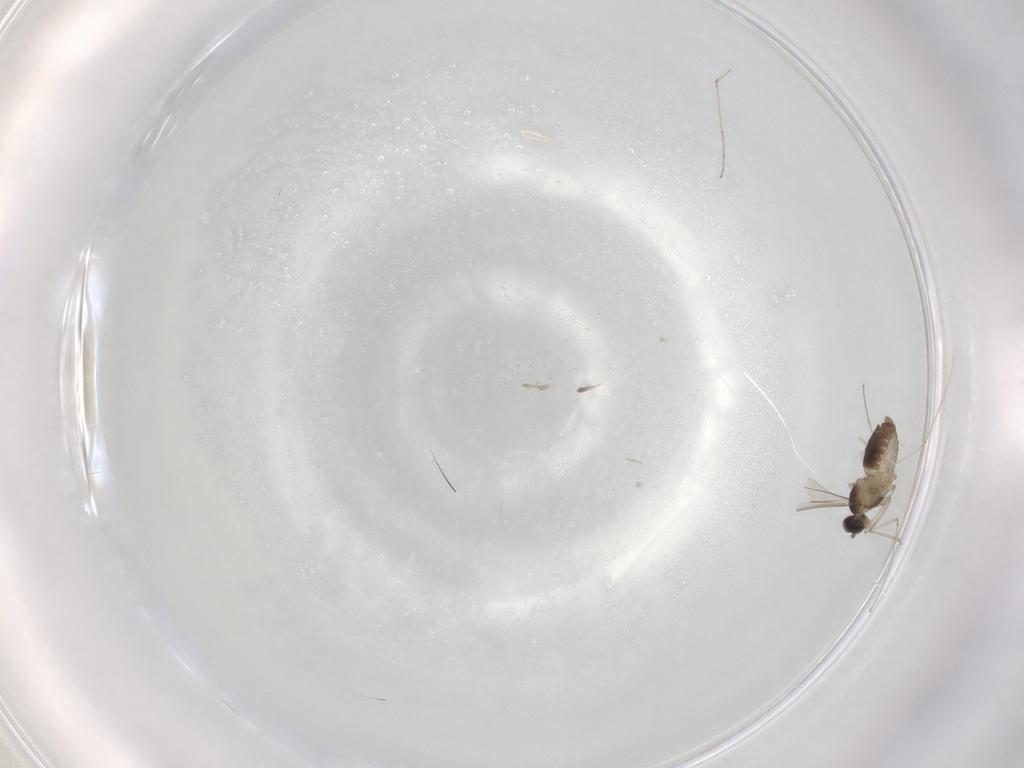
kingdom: Animalia
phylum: Arthropoda
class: Insecta
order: Diptera
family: Cecidomyiidae
